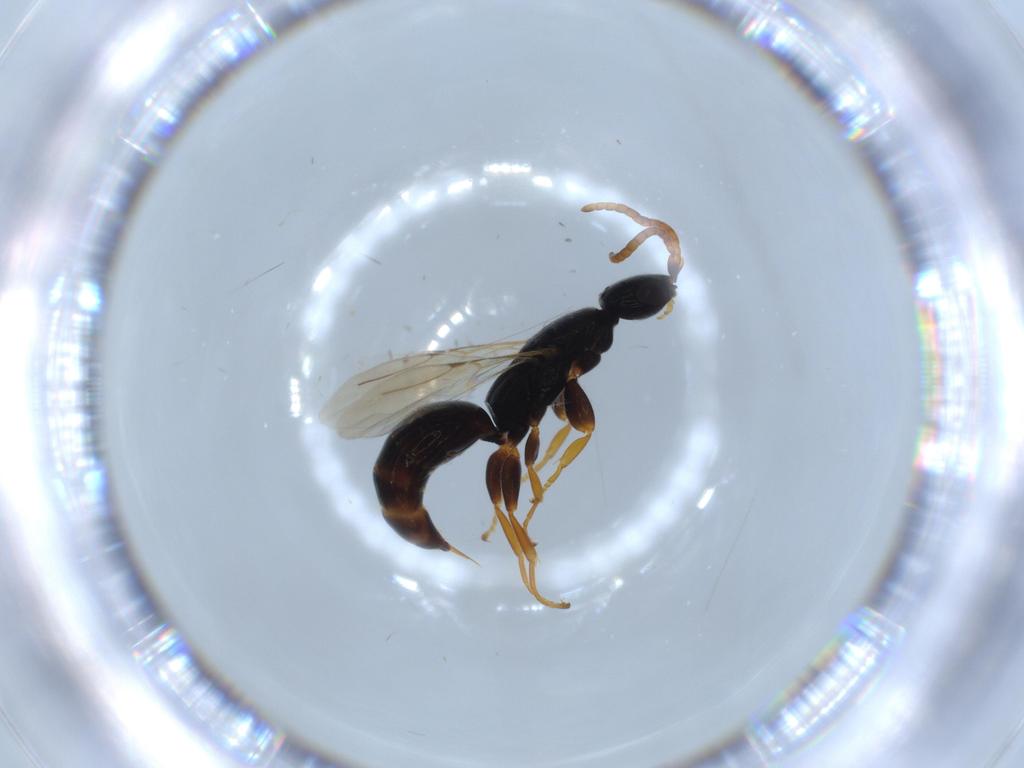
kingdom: Animalia
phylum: Arthropoda
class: Insecta
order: Hymenoptera
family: Bethylidae
